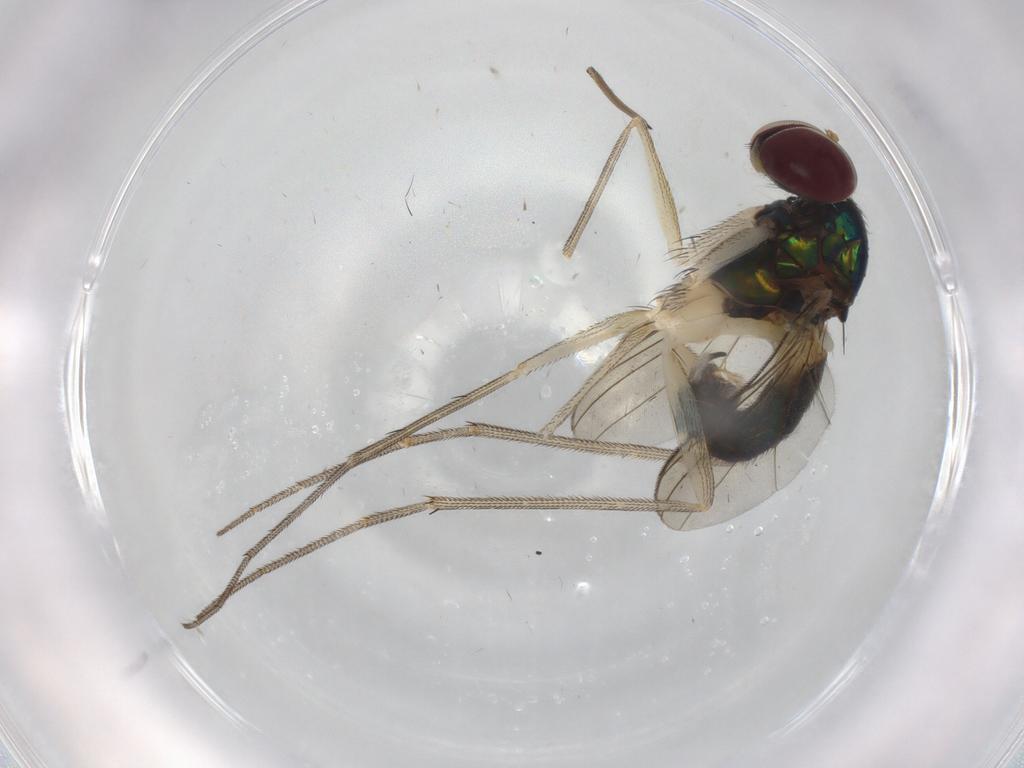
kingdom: Animalia
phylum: Arthropoda
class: Insecta
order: Diptera
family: Dolichopodidae
